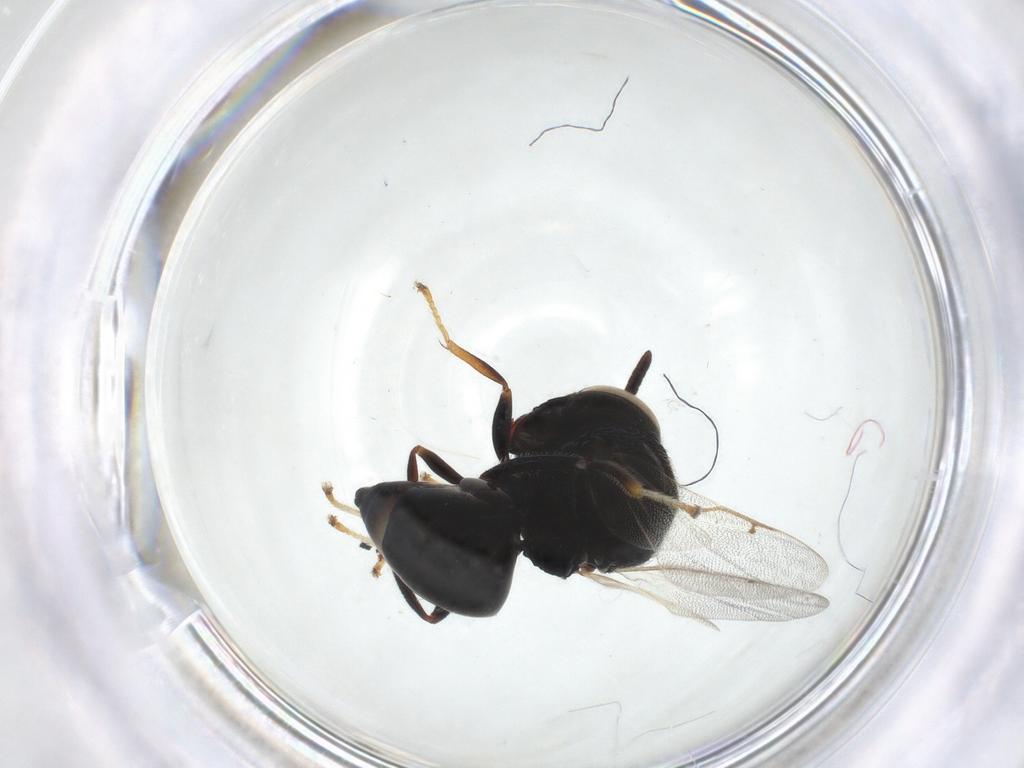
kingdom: Animalia
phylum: Arthropoda
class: Insecta
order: Hymenoptera
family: Perilampidae
